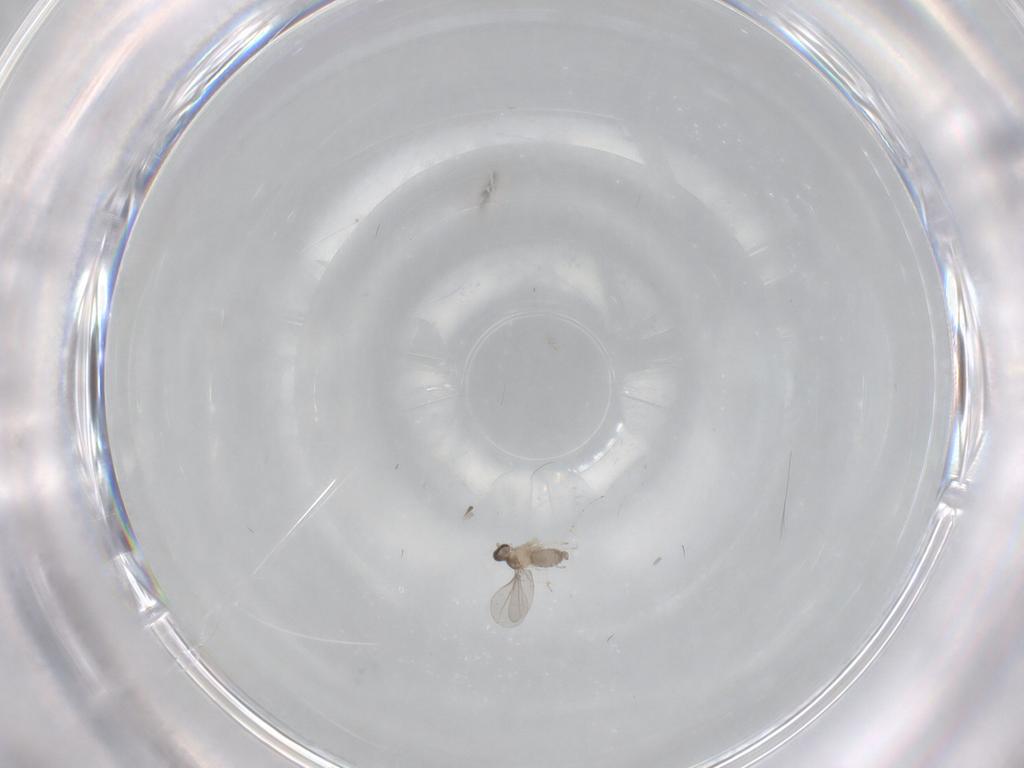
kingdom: Animalia
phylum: Arthropoda
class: Insecta
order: Diptera
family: Cecidomyiidae
